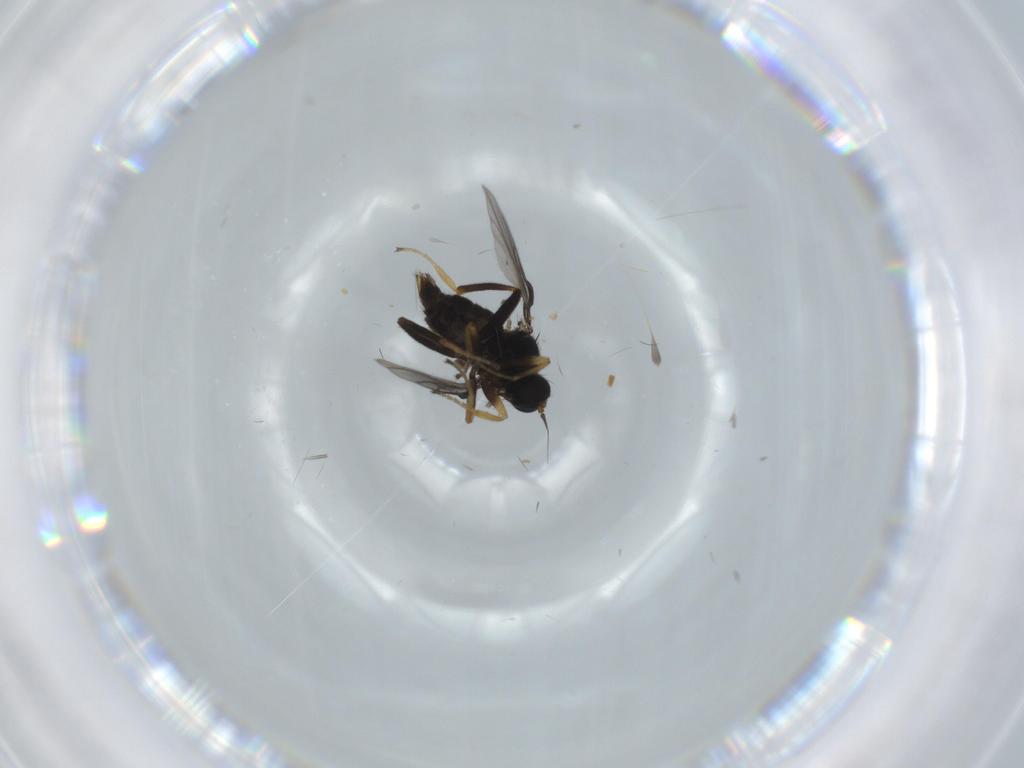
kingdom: Animalia
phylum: Arthropoda
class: Insecta
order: Diptera
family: Hybotidae
